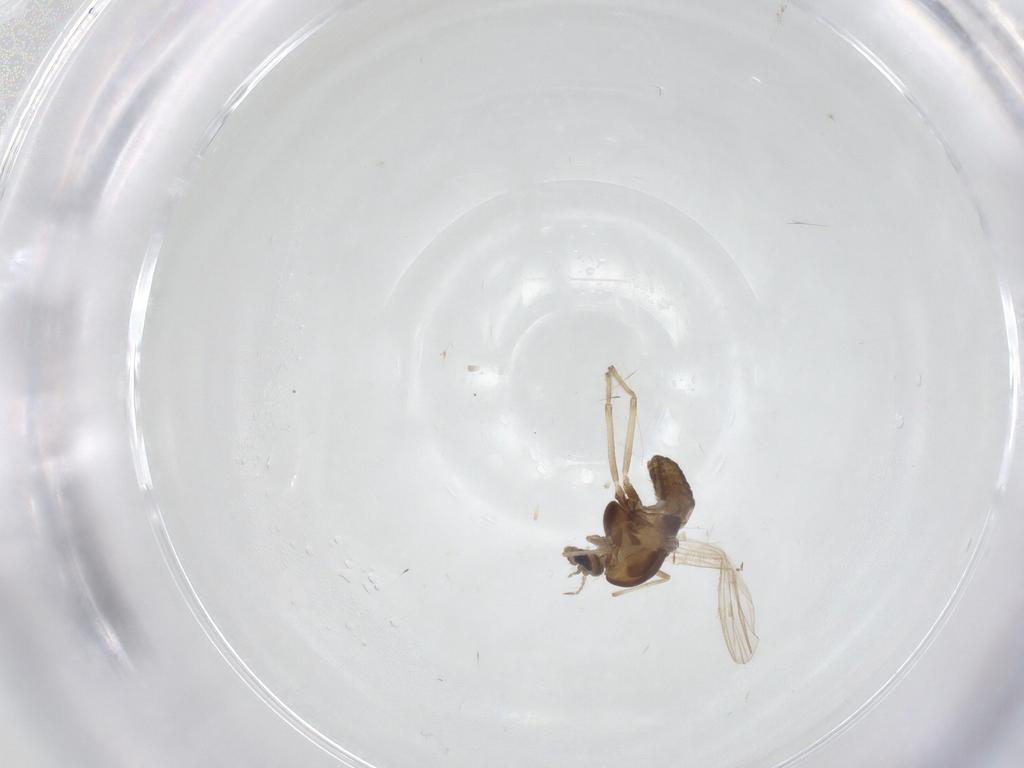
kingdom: Animalia
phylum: Arthropoda
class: Insecta
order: Diptera
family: Chironomidae
